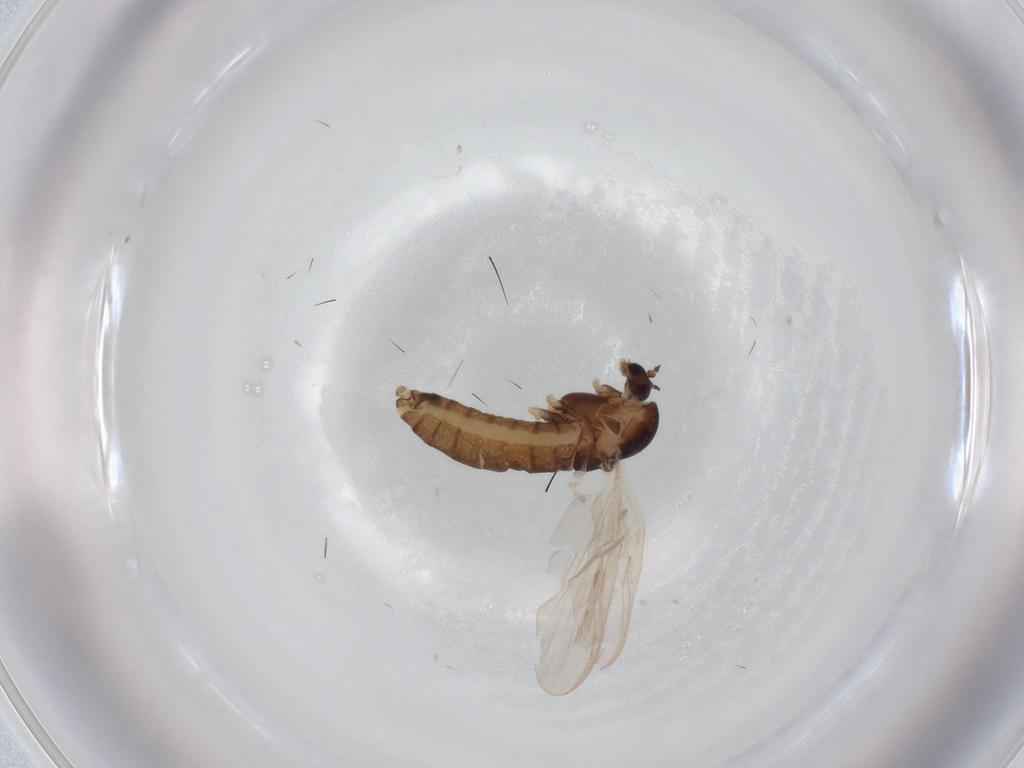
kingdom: Animalia
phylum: Arthropoda
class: Insecta
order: Diptera
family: Chironomidae
